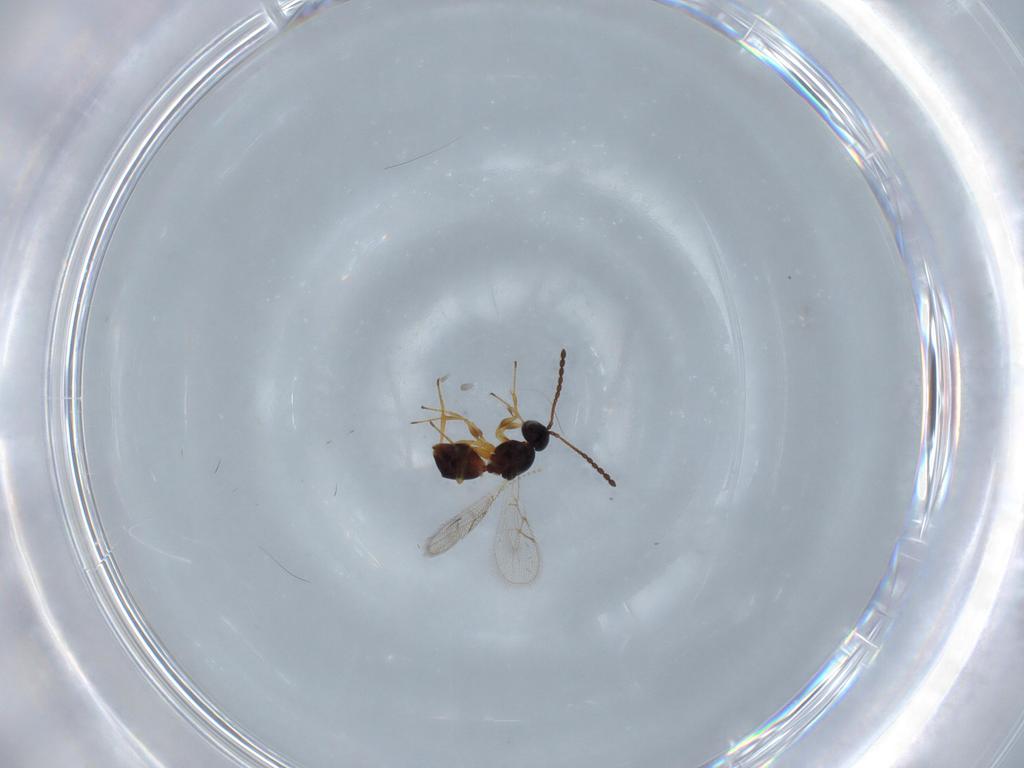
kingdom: Animalia
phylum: Arthropoda
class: Insecta
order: Hymenoptera
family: Figitidae
